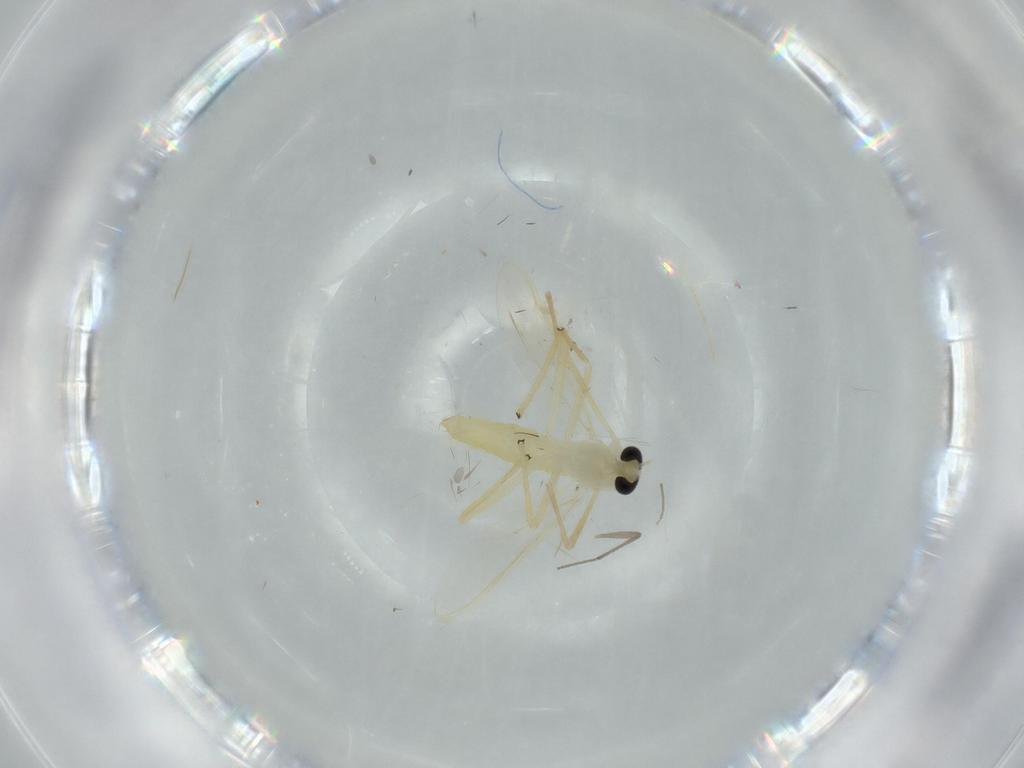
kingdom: Animalia
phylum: Arthropoda
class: Insecta
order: Diptera
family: Chironomidae
